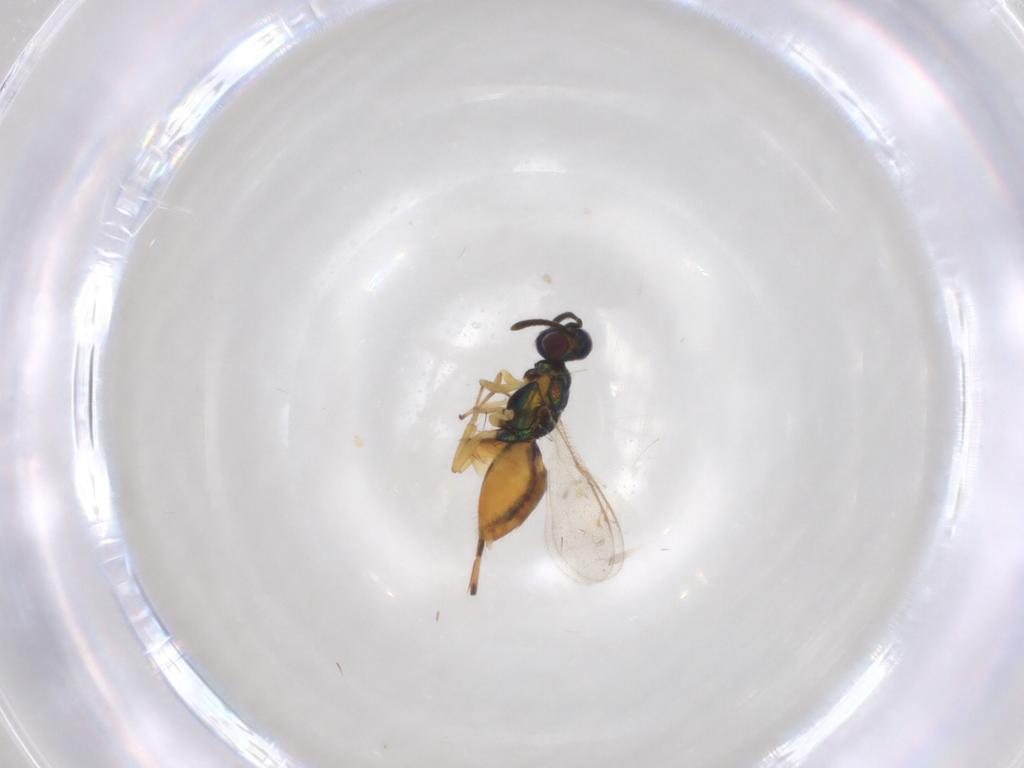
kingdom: Animalia
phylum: Arthropoda
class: Insecta
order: Hymenoptera
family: Eupelmidae
